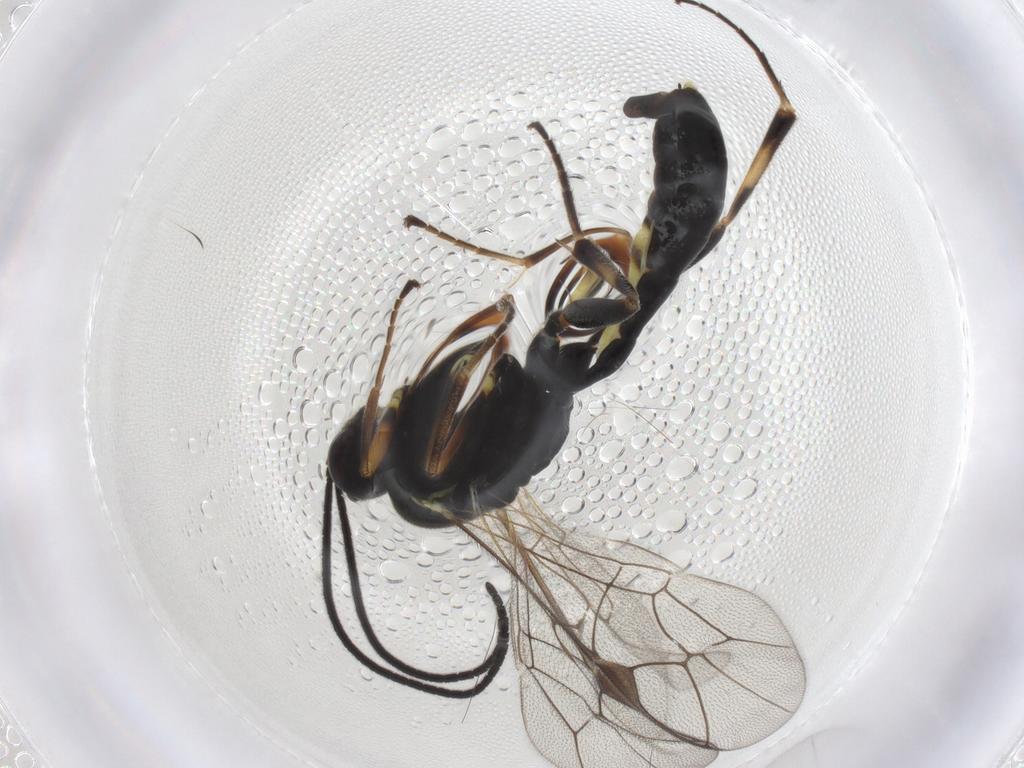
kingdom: Animalia
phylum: Arthropoda
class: Insecta
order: Hymenoptera
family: Ichneumonidae
